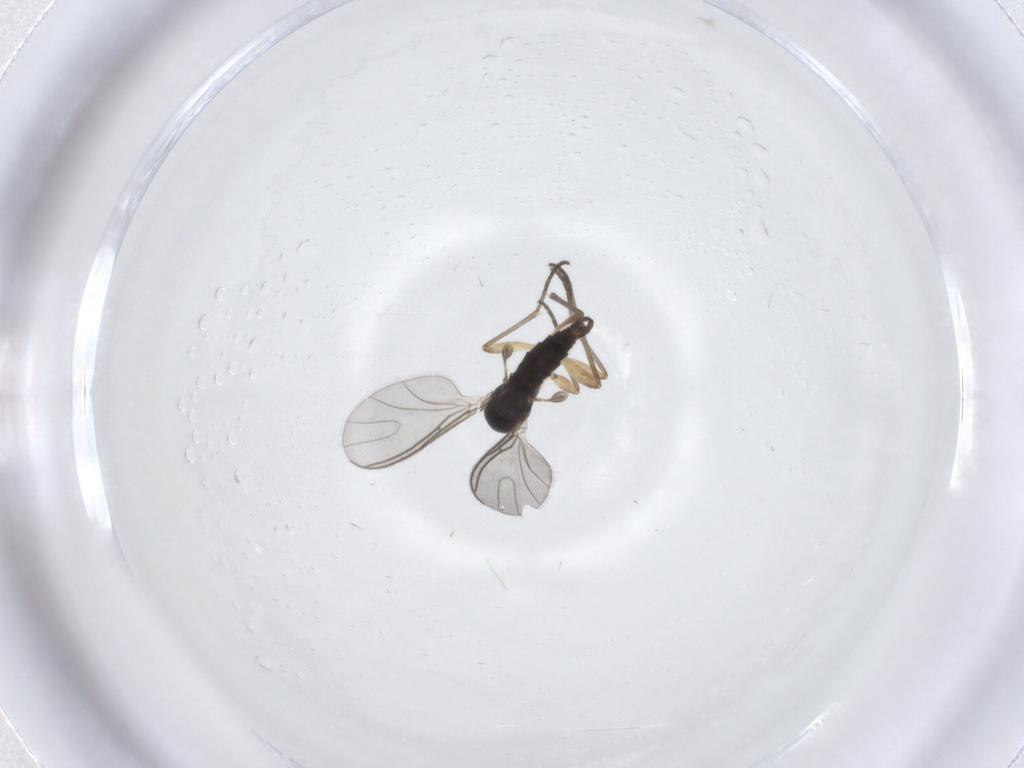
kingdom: Animalia
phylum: Arthropoda
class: Insecta
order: Diptera
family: Sciaridae
